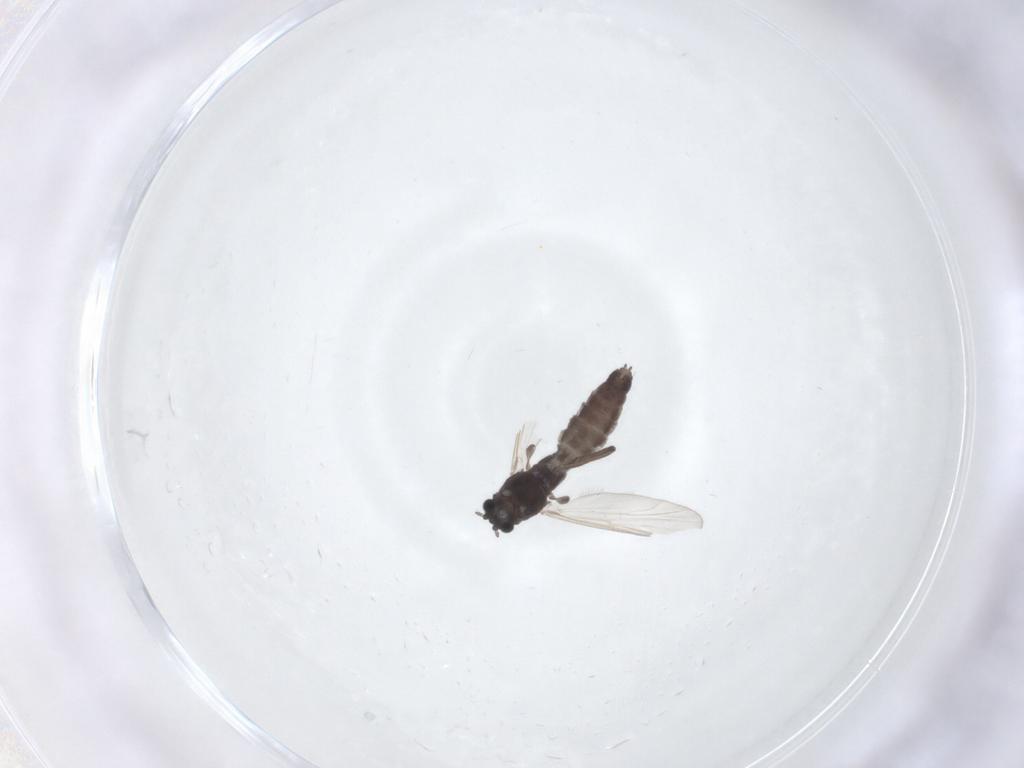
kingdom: Animalia
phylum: Arthropoda
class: Insecta
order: Diptera
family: Chironomidae
